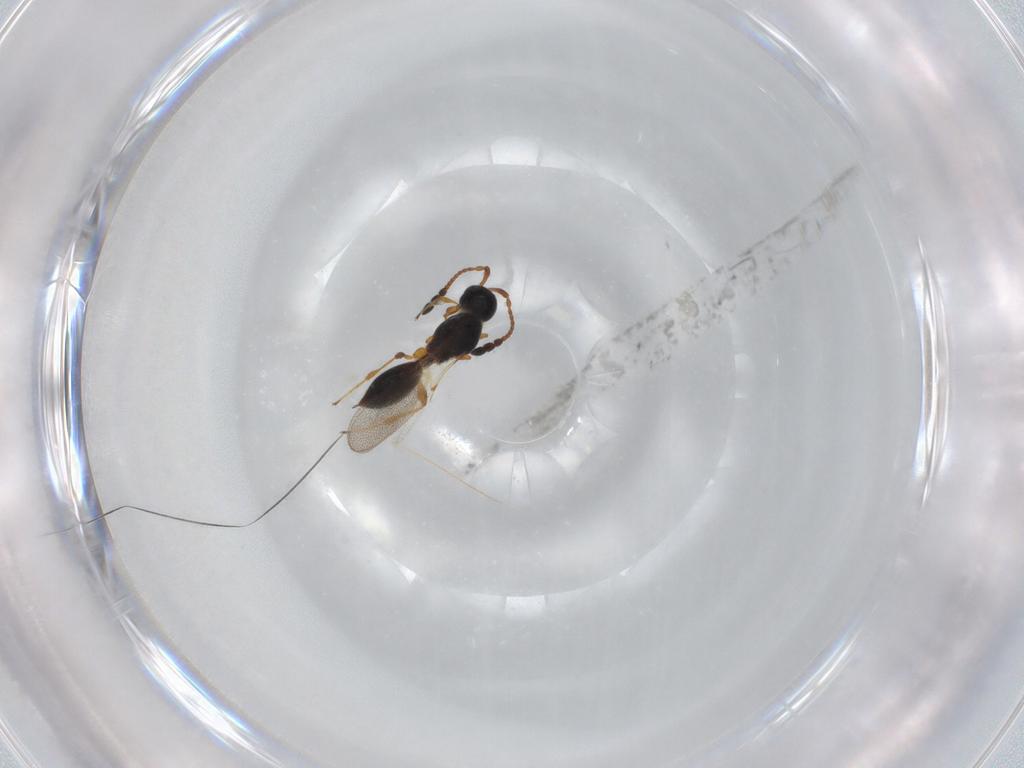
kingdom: Animalia
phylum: Arthropoda
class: Insecta
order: Hymenoptera
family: Diapriidae
